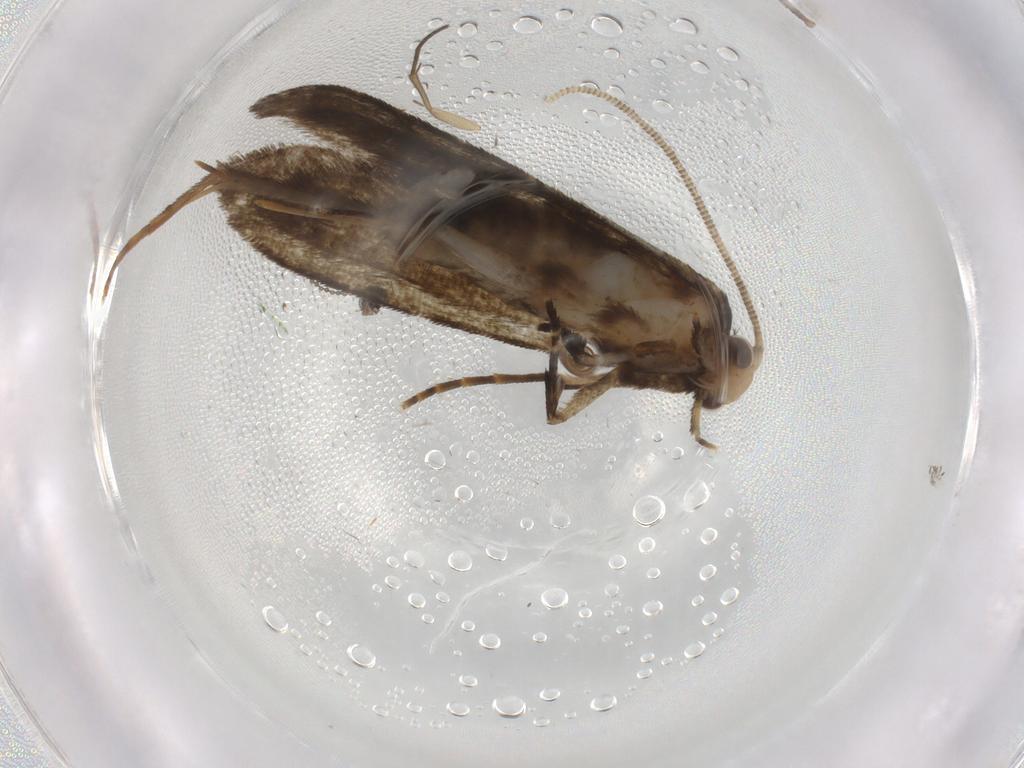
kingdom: Animalia
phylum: Arthropoda
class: Insecta
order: Lepidoptera
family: Tineidae
